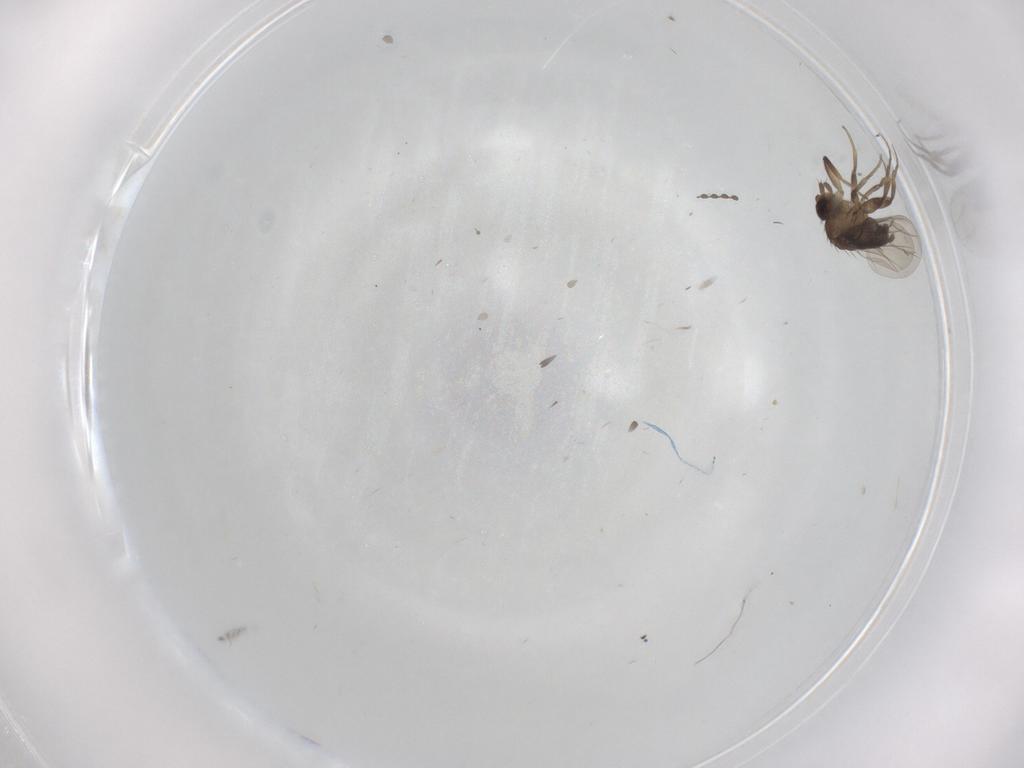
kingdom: Animalia
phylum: Arthropoda
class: Insecta
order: Diptera
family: Phoridae
